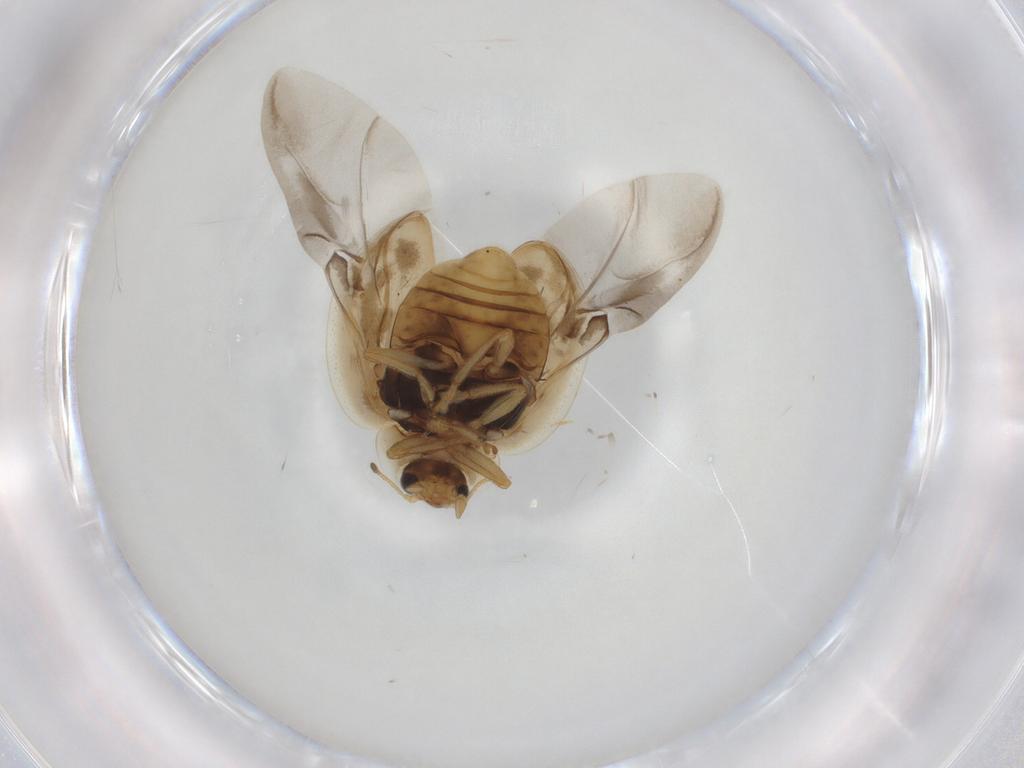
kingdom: Animalia
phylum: Arthropoda
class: Insecta
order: Coleoptera
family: Coccinellidae
